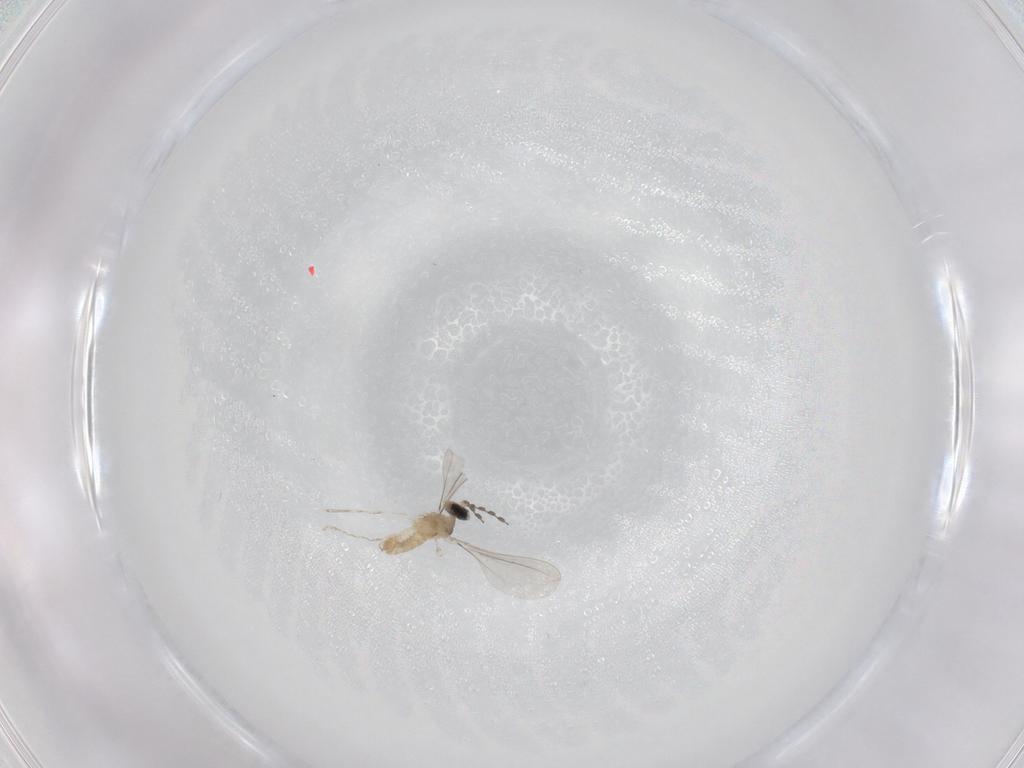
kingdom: Animalia
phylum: Arthropoda
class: Insecta
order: Diptera
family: Cecidomyiidae
